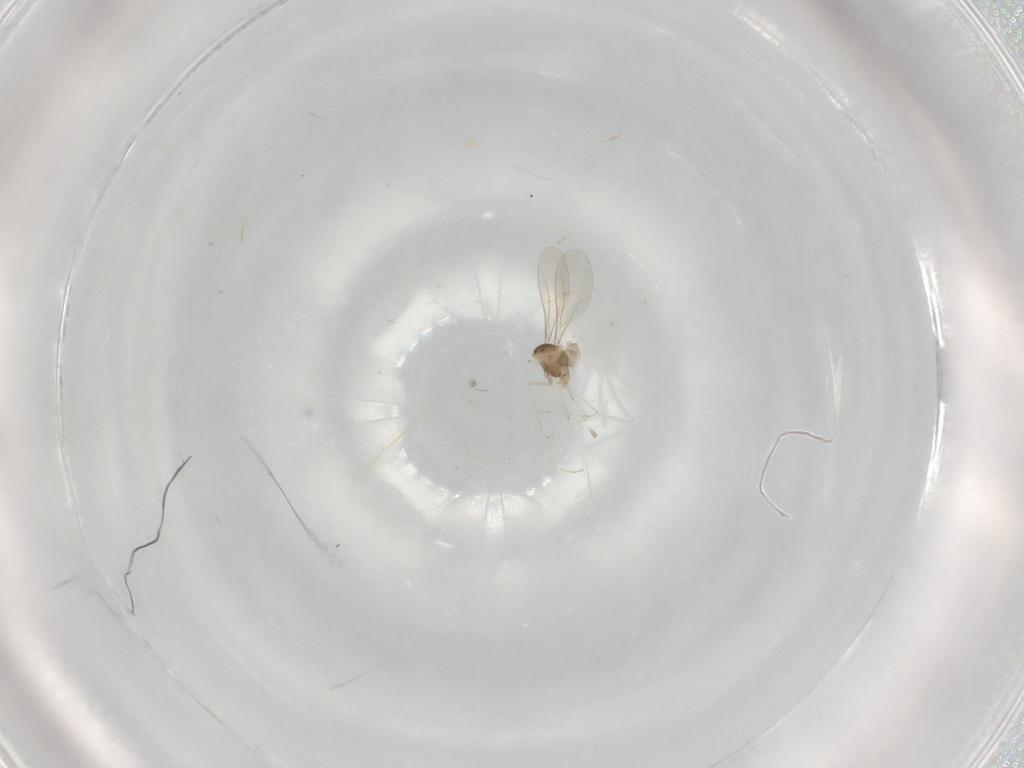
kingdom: Animalia
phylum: Arthropoda
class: Insecta
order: Diptera
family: Cecidomyiidae
